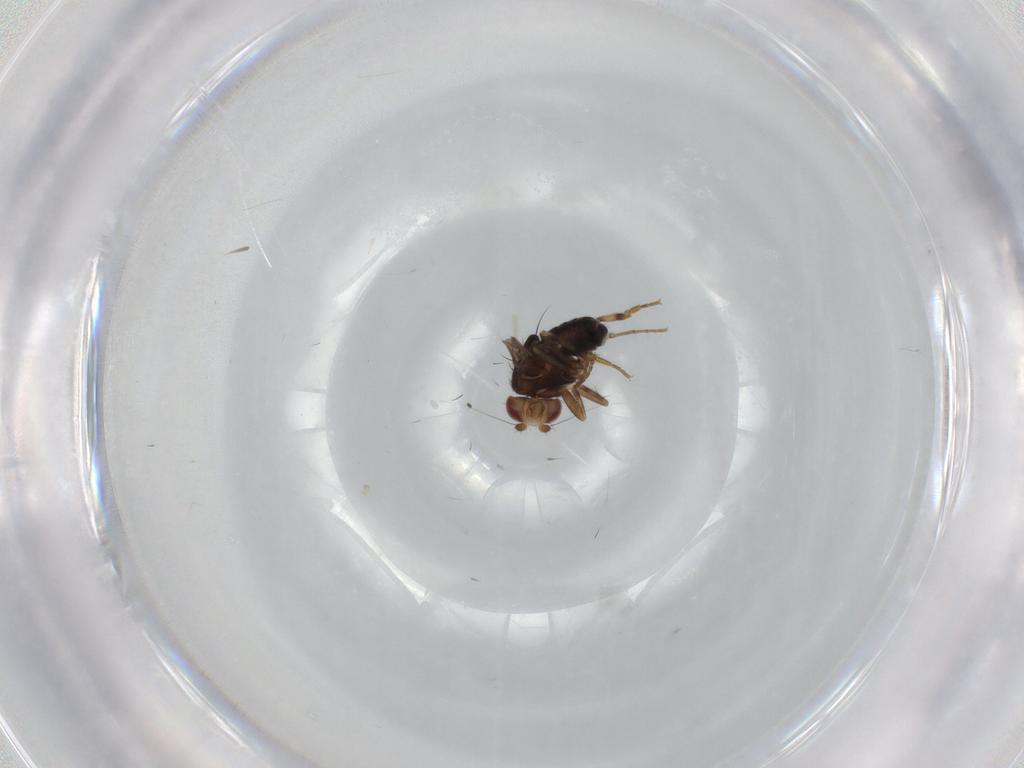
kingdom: Animalia
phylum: Arthropoda
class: Insecta
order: Diptera
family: Sphaeroceridae
